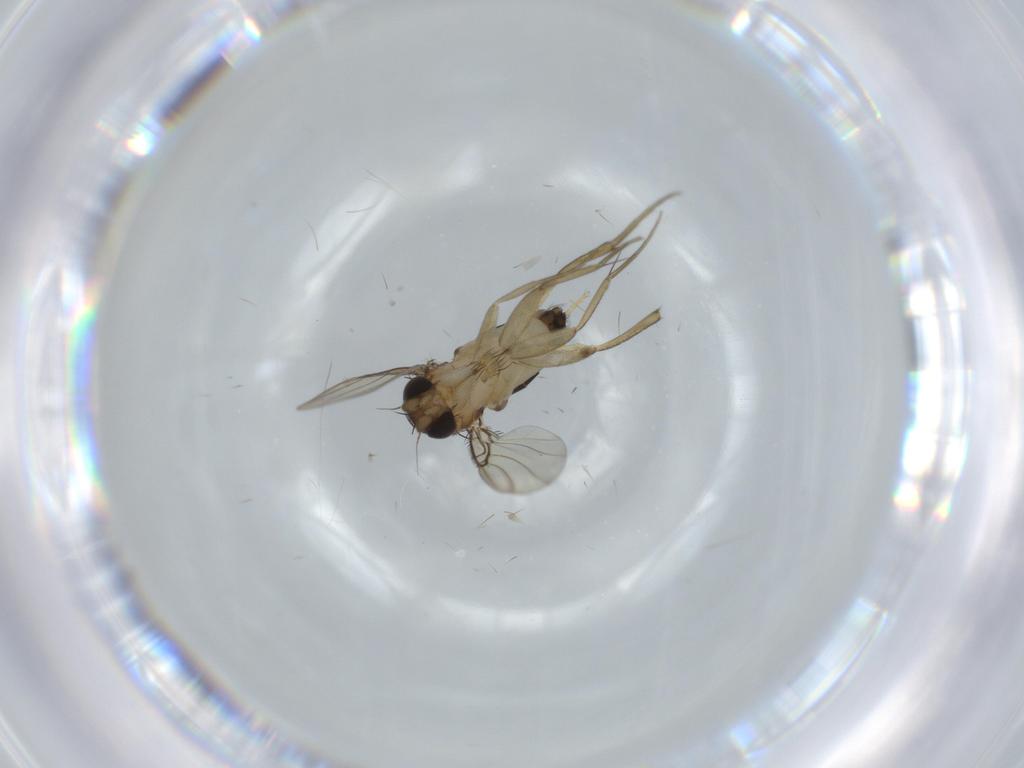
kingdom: Animalia
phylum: Arthropoda
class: Insecta
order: Diptera
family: Phoridae
